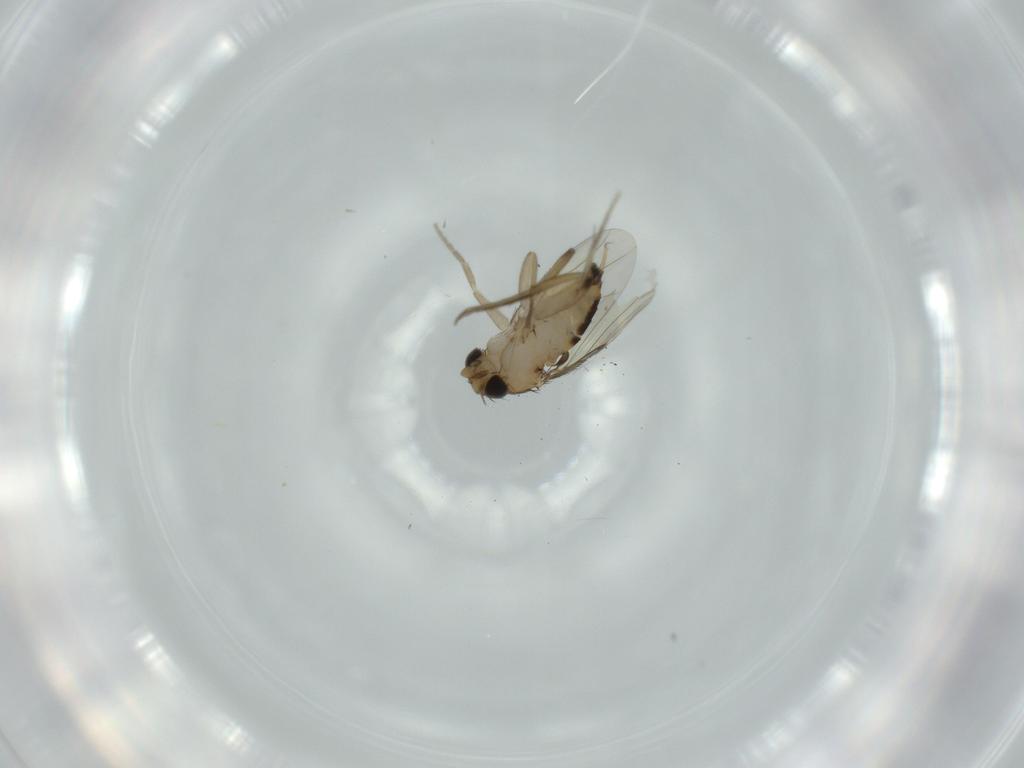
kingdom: Animalia
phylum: Arthropoda
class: Insecta
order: Diptera
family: Phoridae
